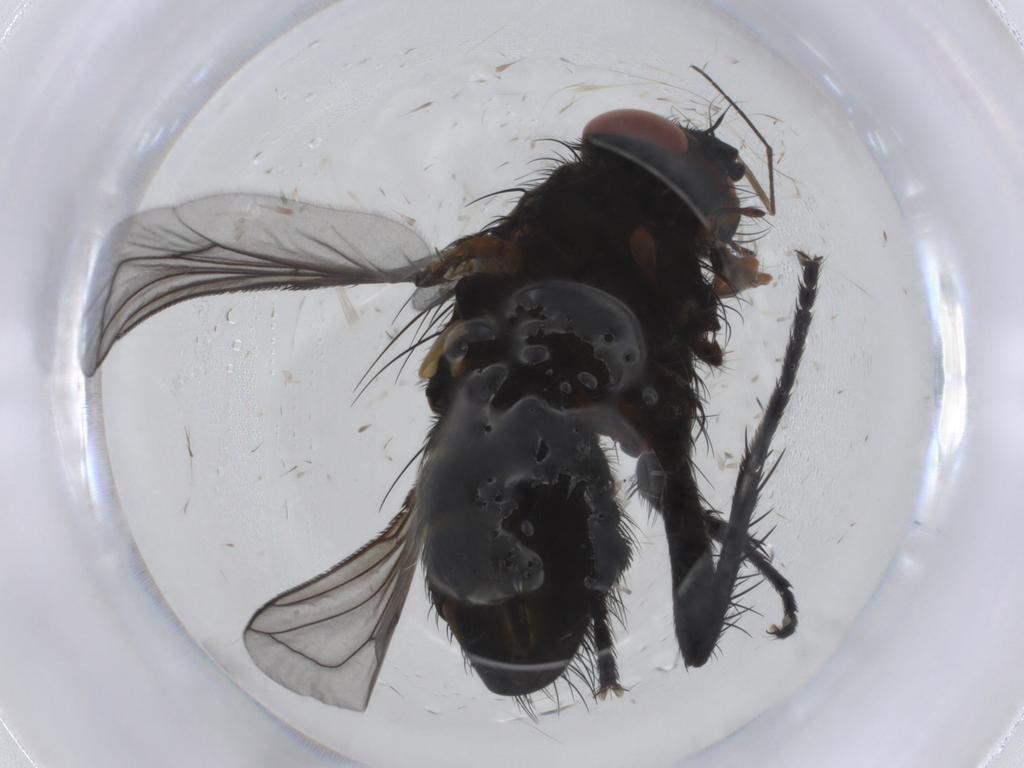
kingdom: Animalia
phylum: Arthropoda
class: Insecta
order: Diptera
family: Tachinidae
